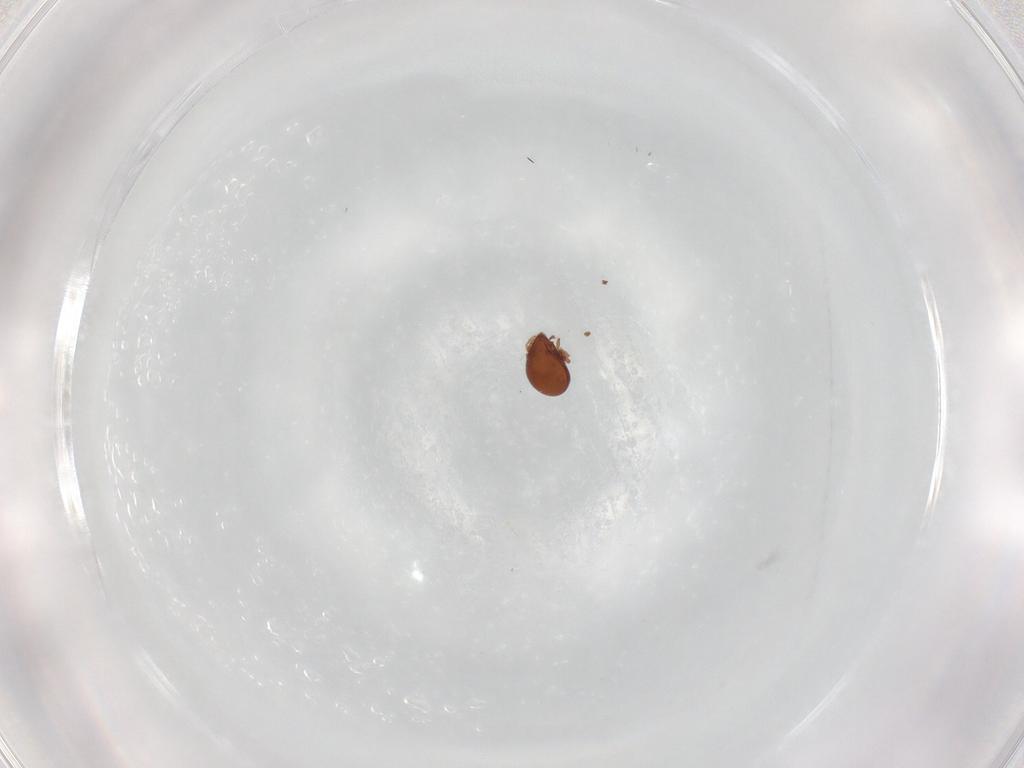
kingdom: Animalia
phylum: Arthropoda
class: Arachnida
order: Sarcoptiformes
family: Haplozetidae
